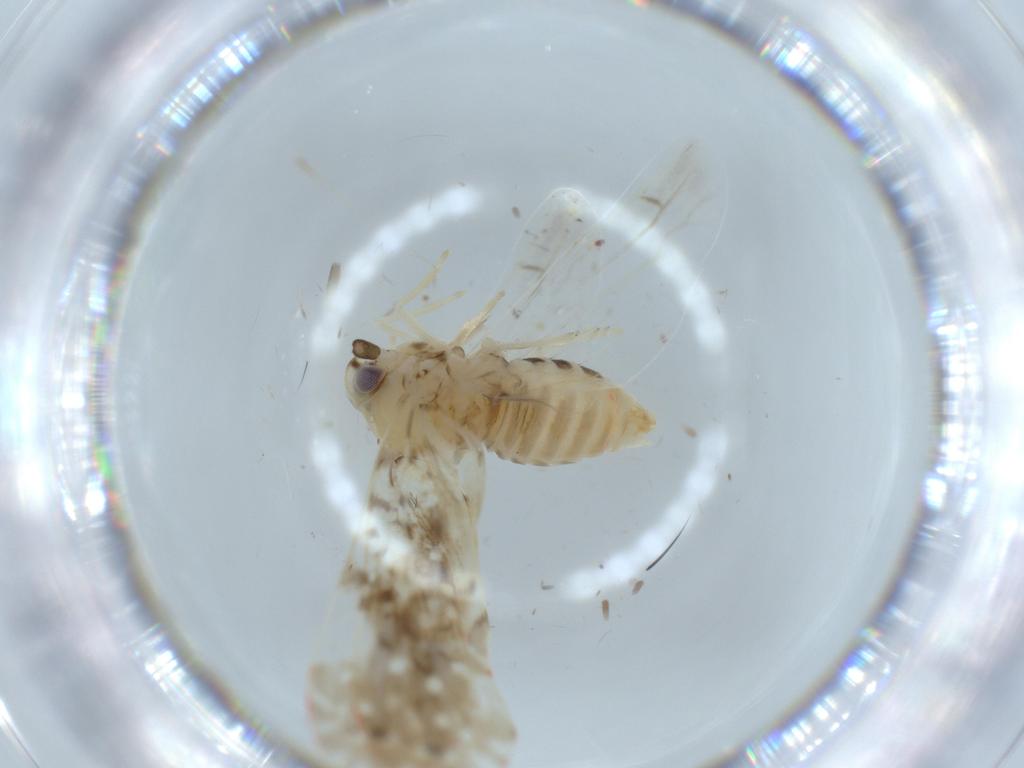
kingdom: Animalia
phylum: Arthropoda
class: Insecta
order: Hemiptera
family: Derbidae
